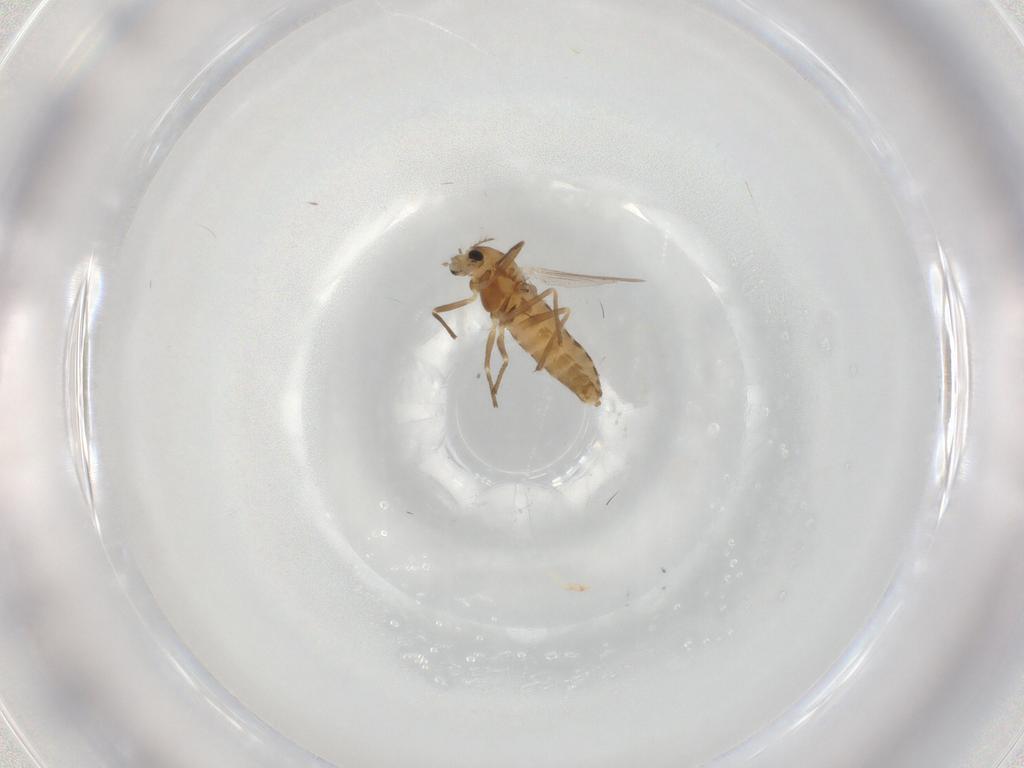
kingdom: Animalia
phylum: Arthropoda
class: Insecta
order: Diptera
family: Chironomidae
